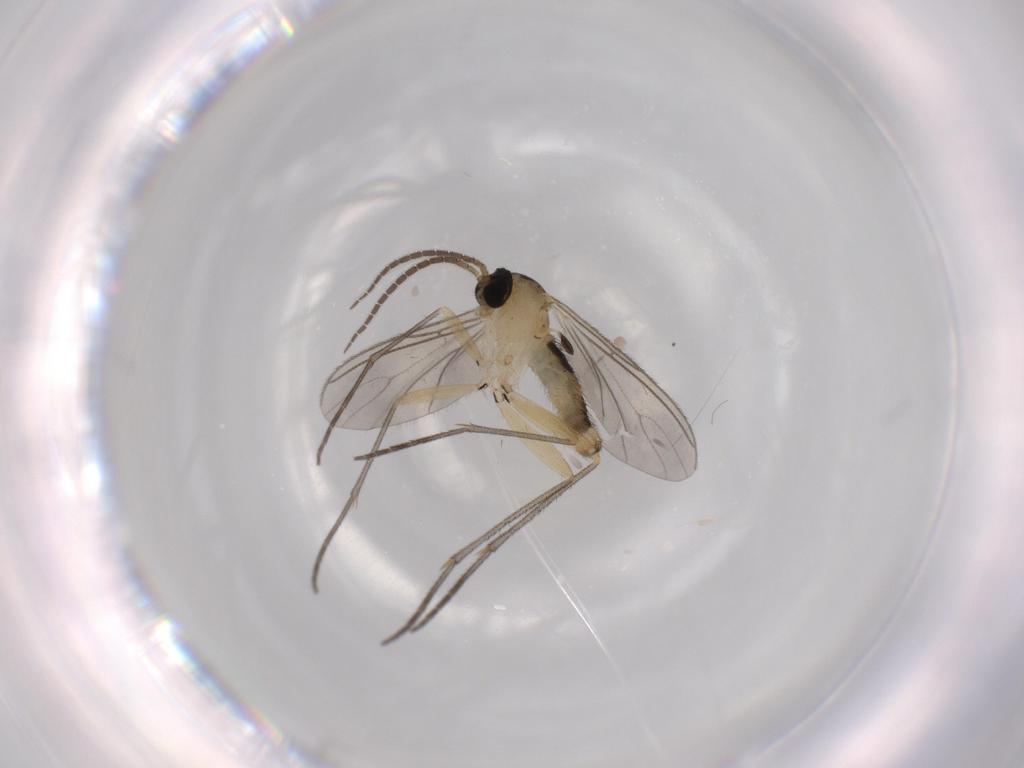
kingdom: Animalia
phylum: Arthropoda
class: Insecta
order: Diptera
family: Sciaridae
